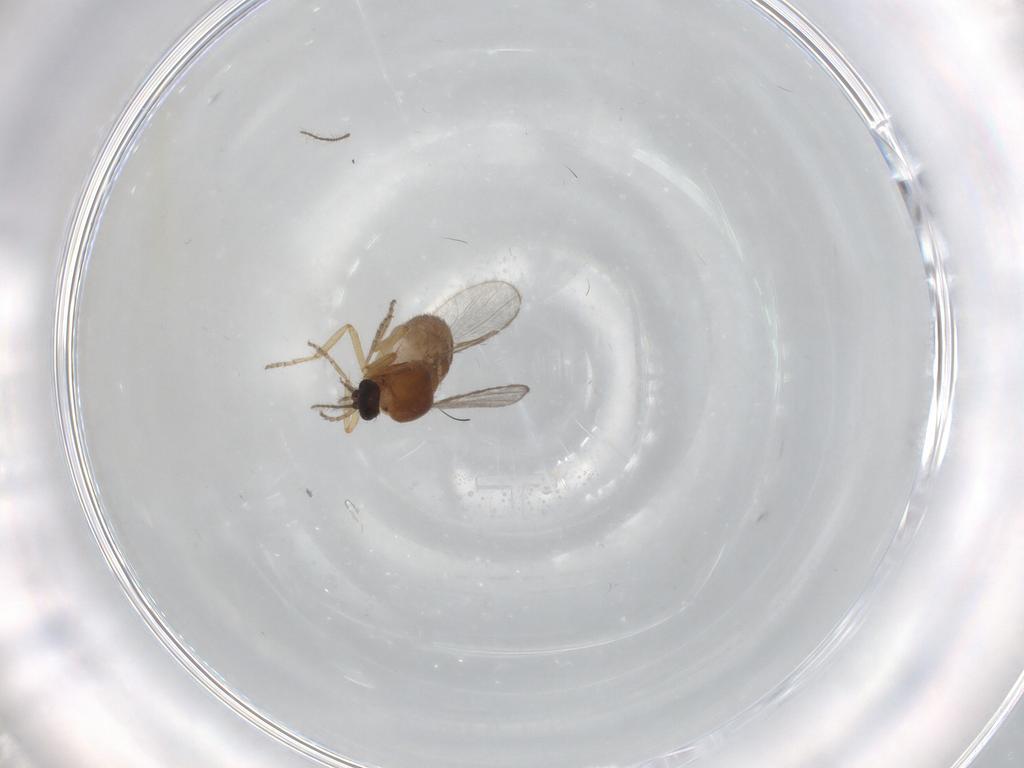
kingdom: Animalia
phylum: Arthropoda
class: Insecta
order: Diptera
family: Ceratopogonidae
